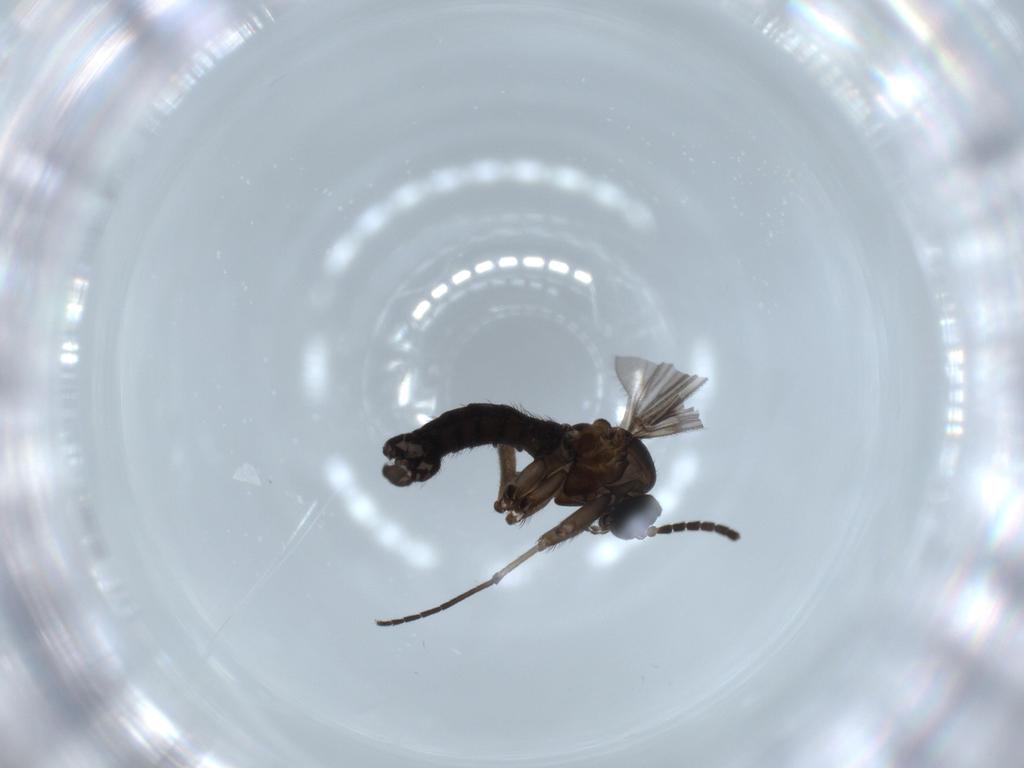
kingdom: Animalia
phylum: Arthropoda
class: Insecta
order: Diptera
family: Sciaridae
